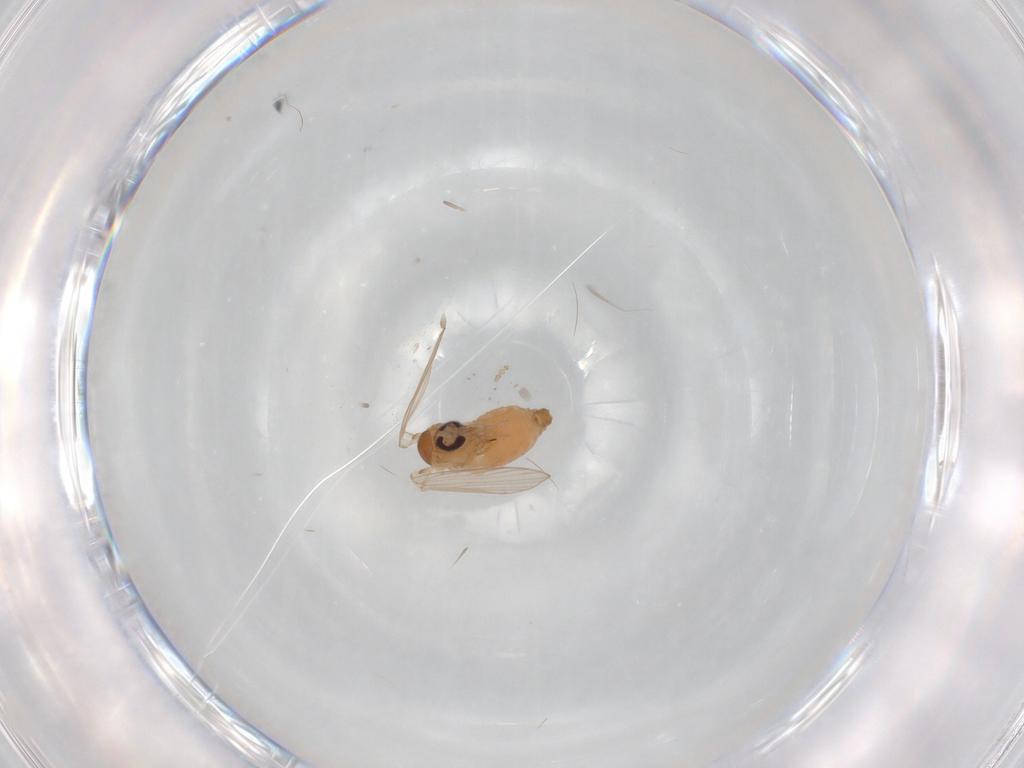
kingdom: Animalia
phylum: Arthropoda
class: Insecta
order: Diptera
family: Psychodidae
